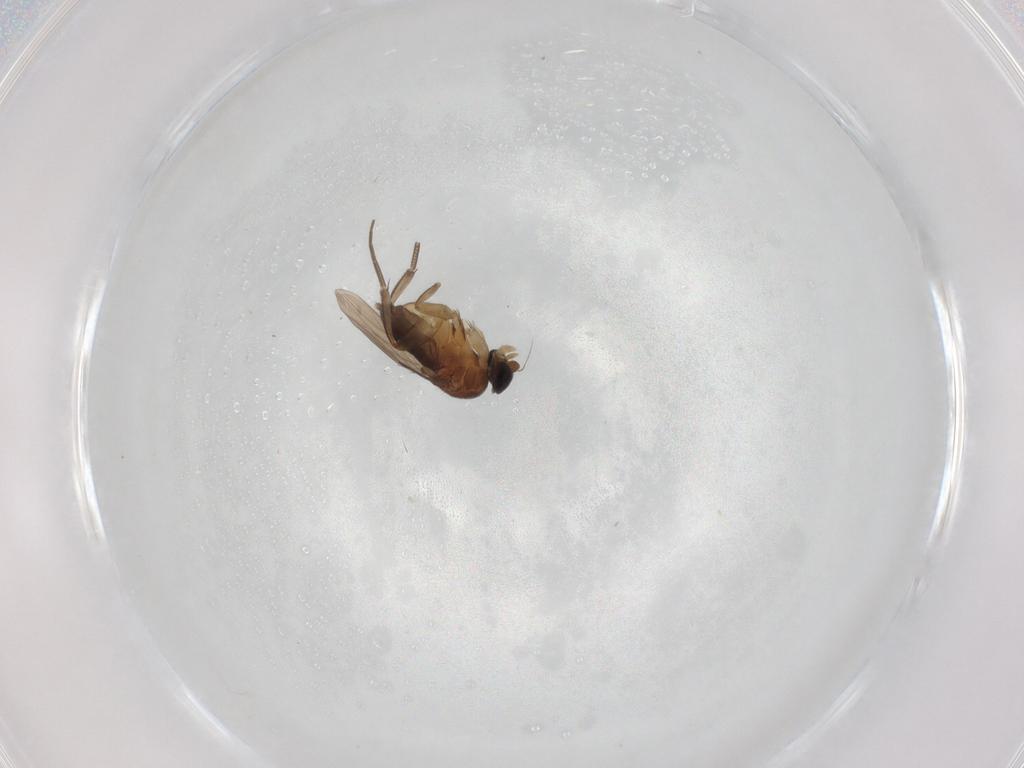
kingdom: Animalia
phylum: Arthropoda
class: Insecta
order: Diptera
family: Phoridae
